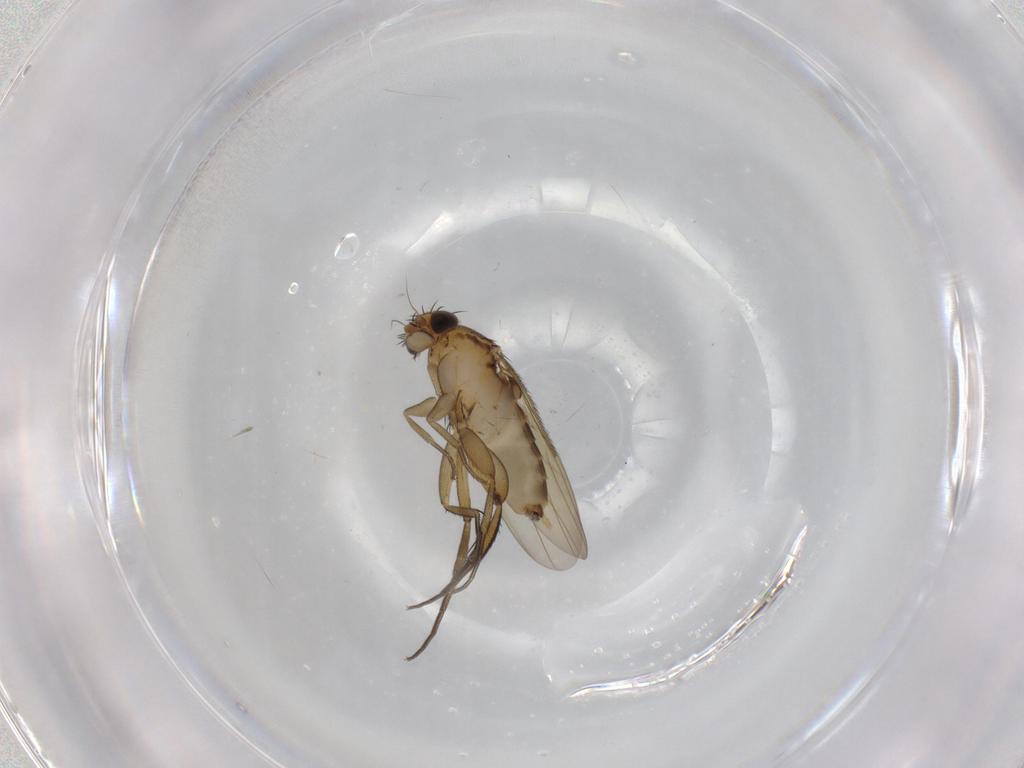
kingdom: Animalia
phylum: Arthropoda
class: Insecta
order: Diptera
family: Phoridae
